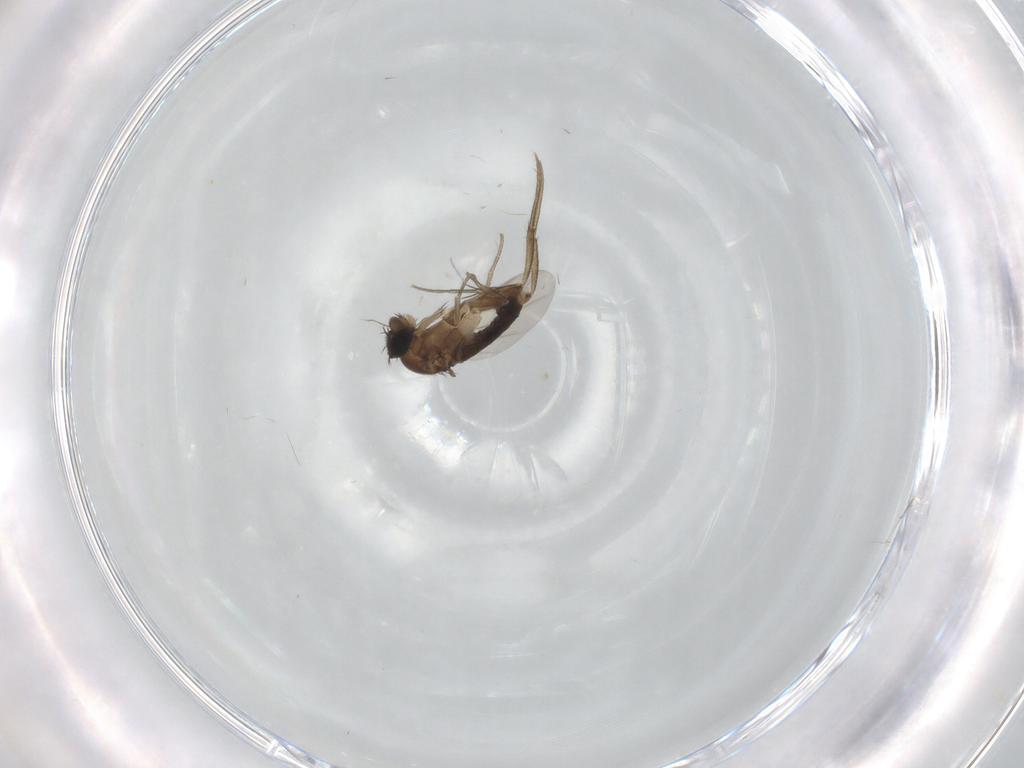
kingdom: Animalia
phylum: Arthropoda
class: Insecta
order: Diptera
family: Phoridae
